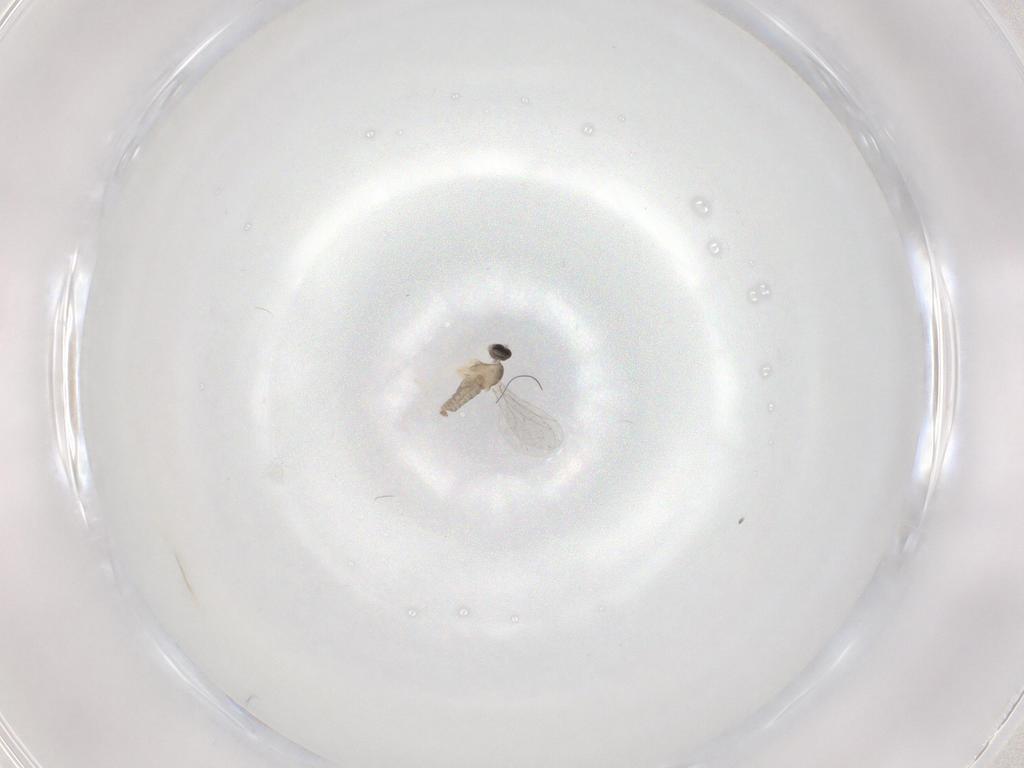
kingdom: Animalia
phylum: Arthropoda
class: Insecta
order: Diptera
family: Cecidomyiidae
